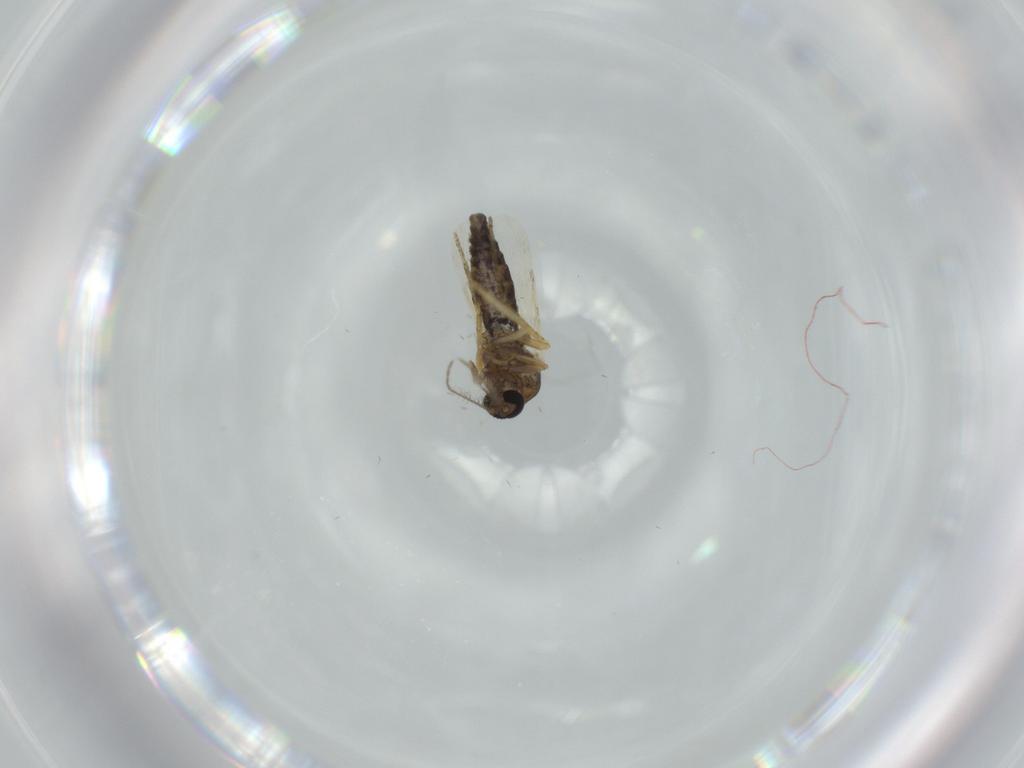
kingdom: Animalia
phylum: Arthropoda
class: Insecta
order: Diptera
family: Ceratopogonidae
